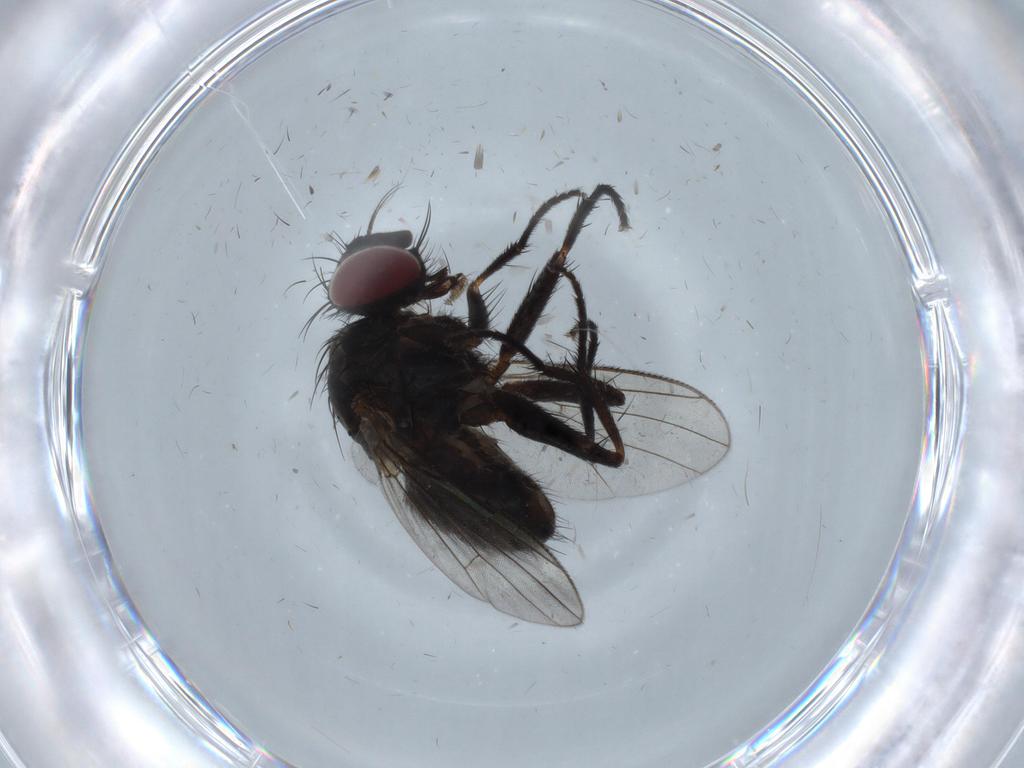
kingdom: Animalia
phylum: Arthropoda
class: Insecta
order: Diptera
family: Muscidae
